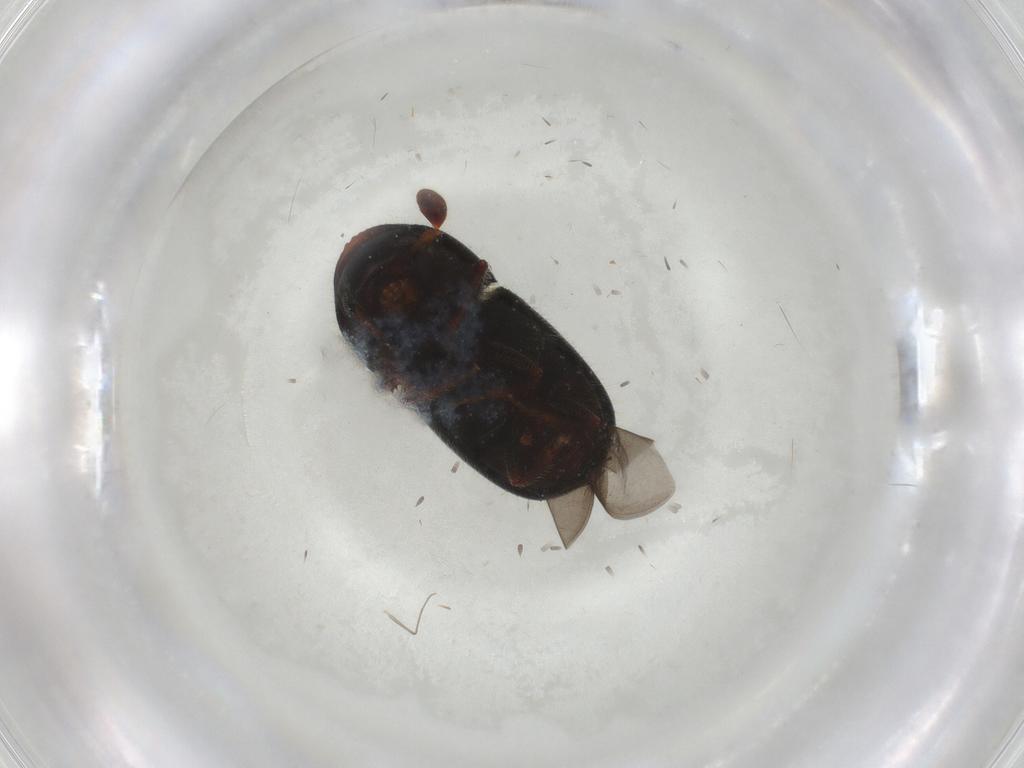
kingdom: Animalia
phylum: Arthropoda
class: Insecta
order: Coleoptera
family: Curculionidae
